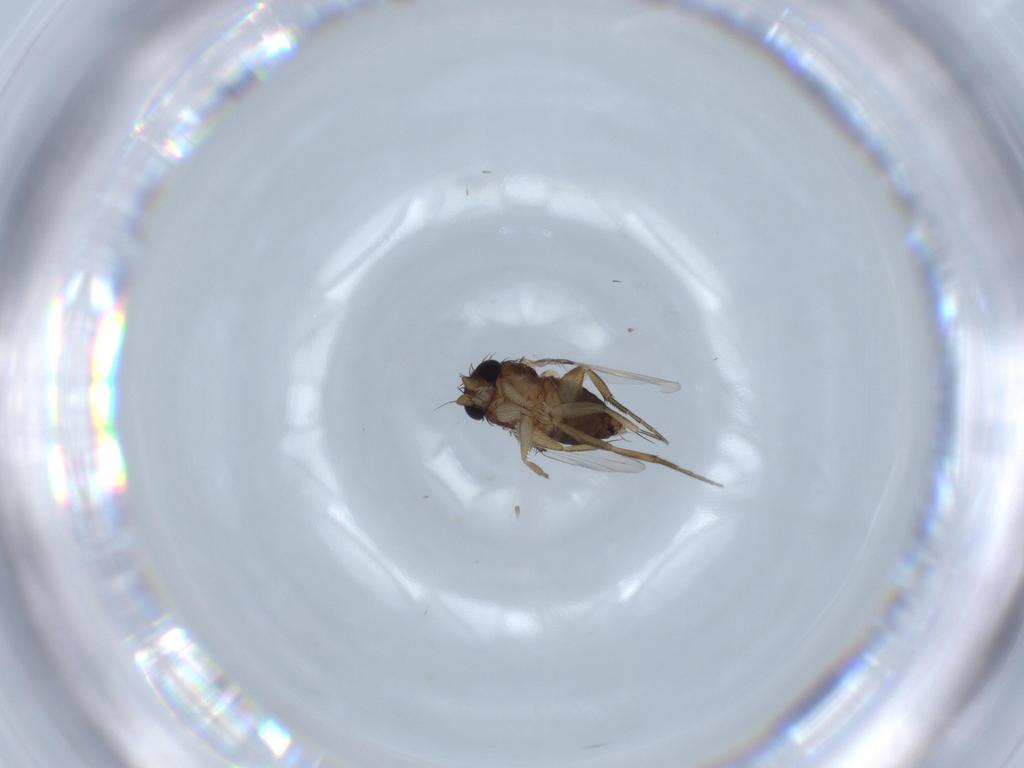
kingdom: Animalia
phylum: Arthropoda
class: Insecta
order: Diptera
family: Phoridae
